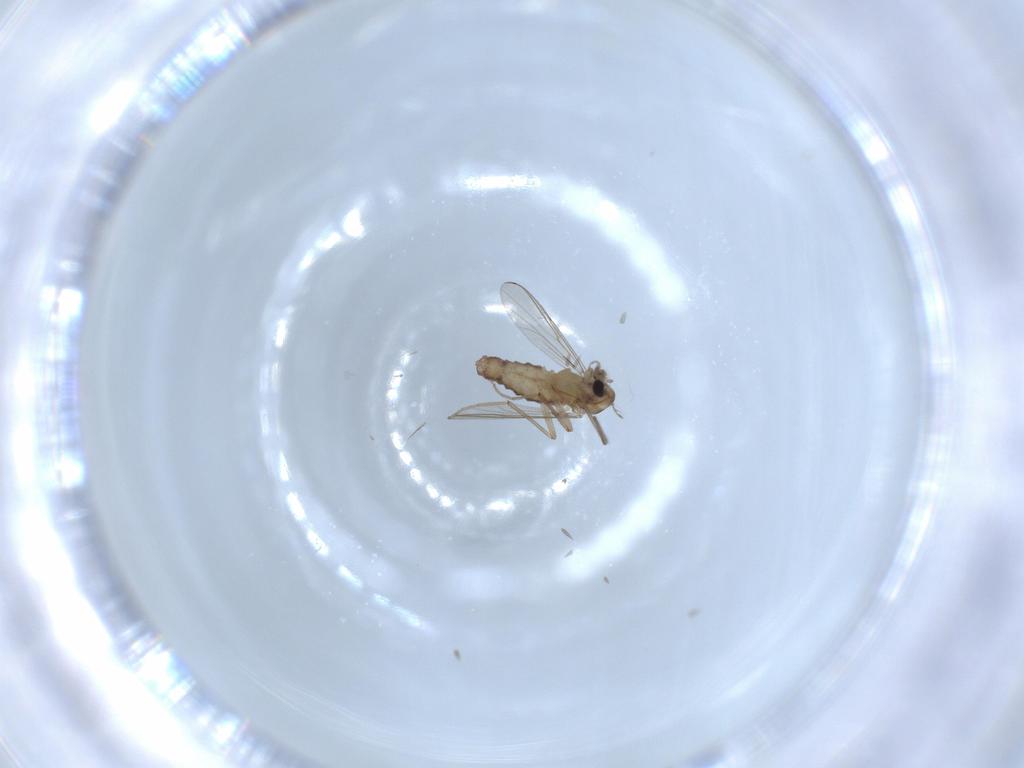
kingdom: Animalia
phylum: Arthropoda
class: Insecta
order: Diptera
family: Chironomidae
